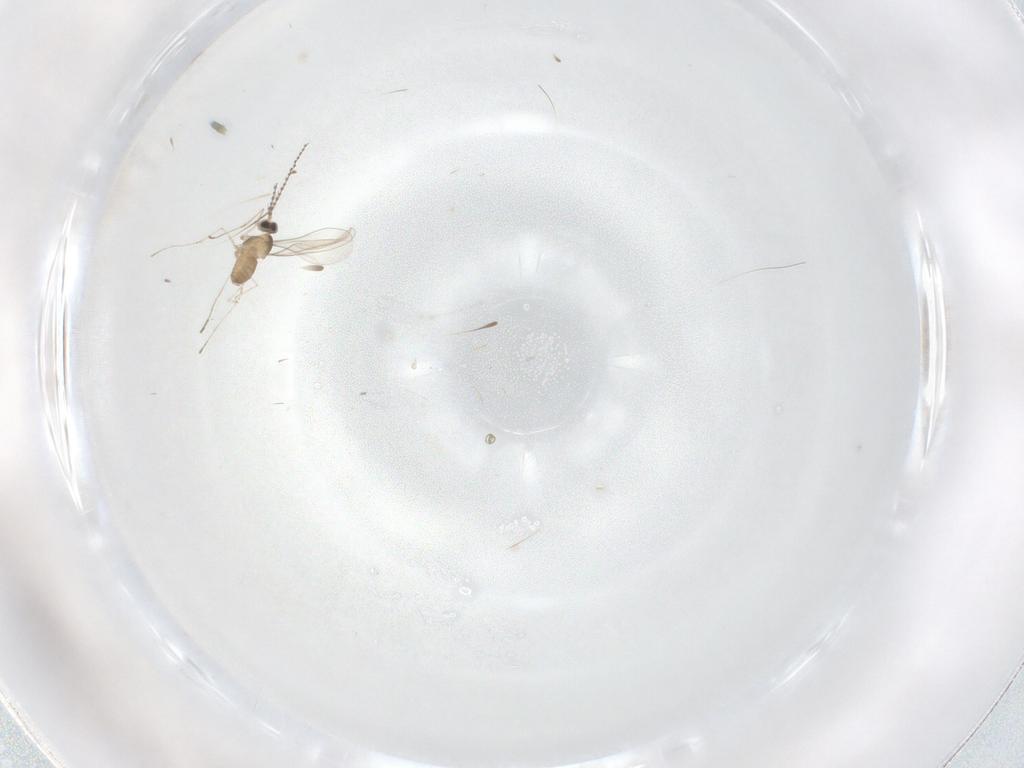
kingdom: Animalia
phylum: Arthropoda
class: Insecta
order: Diptera
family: Cecidomyiidae
